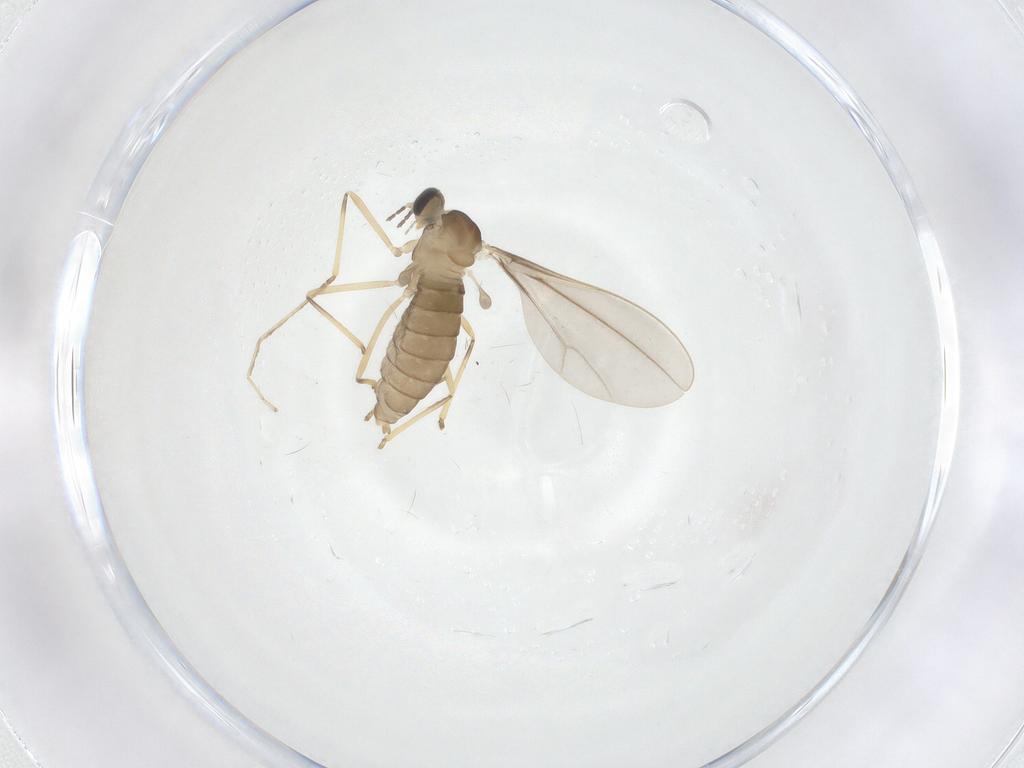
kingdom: Animalia
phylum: Arthropoda
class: Insecta
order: Diptera
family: Cecidomyiidae
